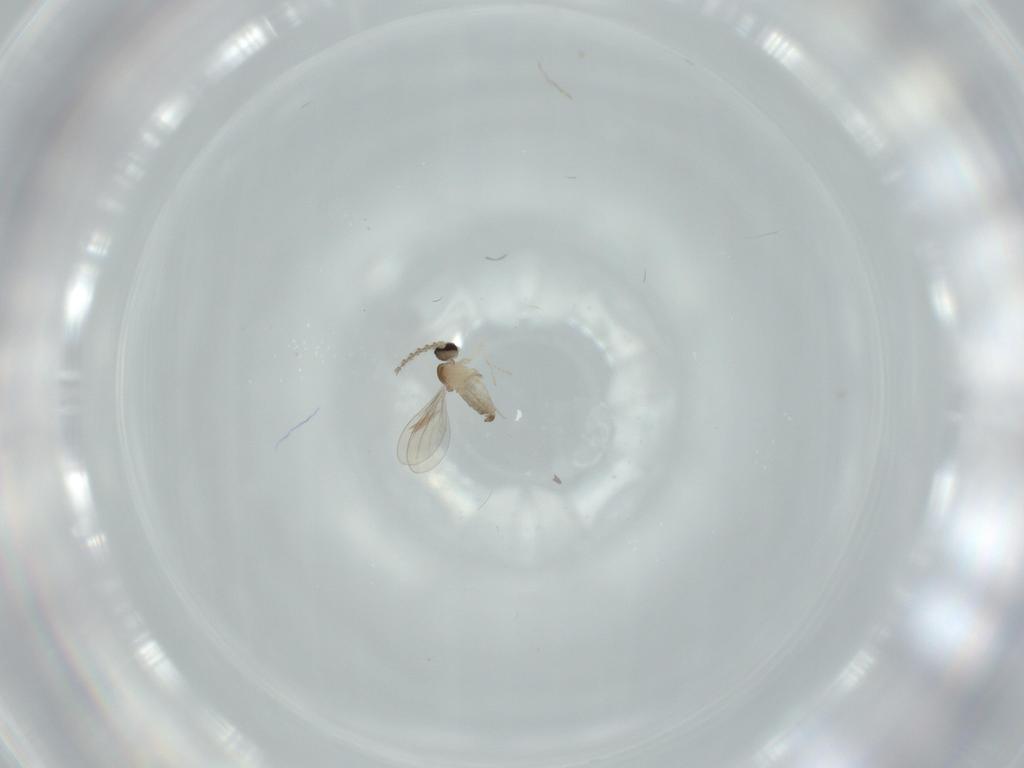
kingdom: Animalia
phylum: Arthropoda
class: Insecta
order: Diptera
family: Cecidomyiidae
